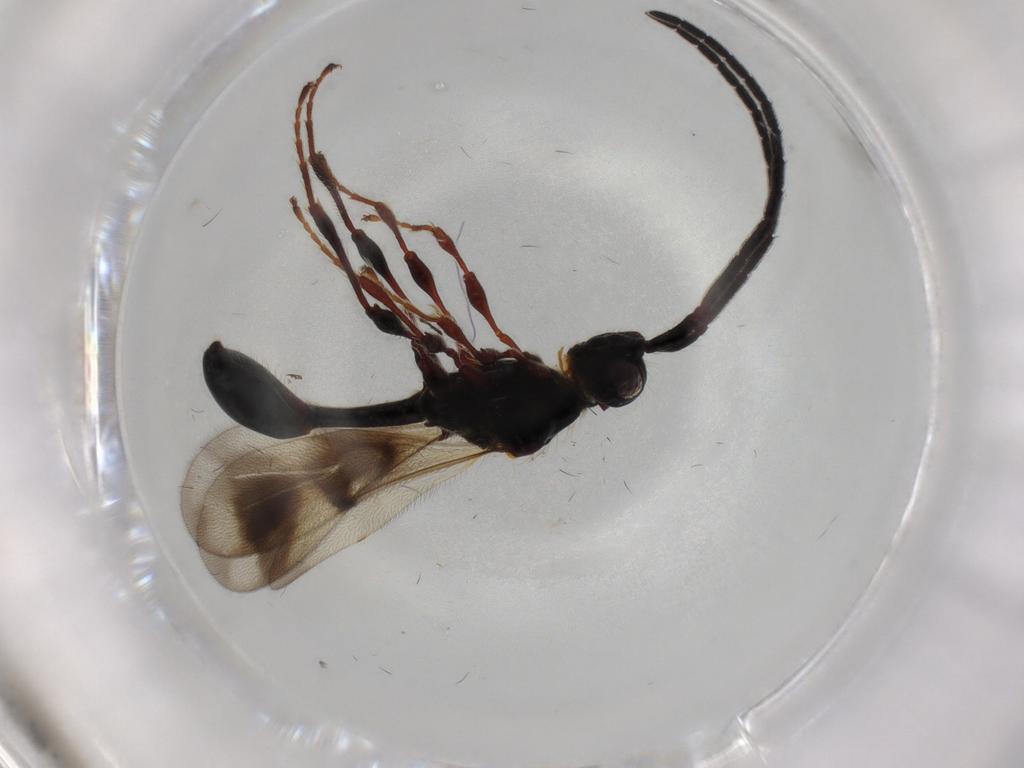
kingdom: Animalia
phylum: Arthropoda
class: Insecta
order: Hymenoptera
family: Diapriidae
